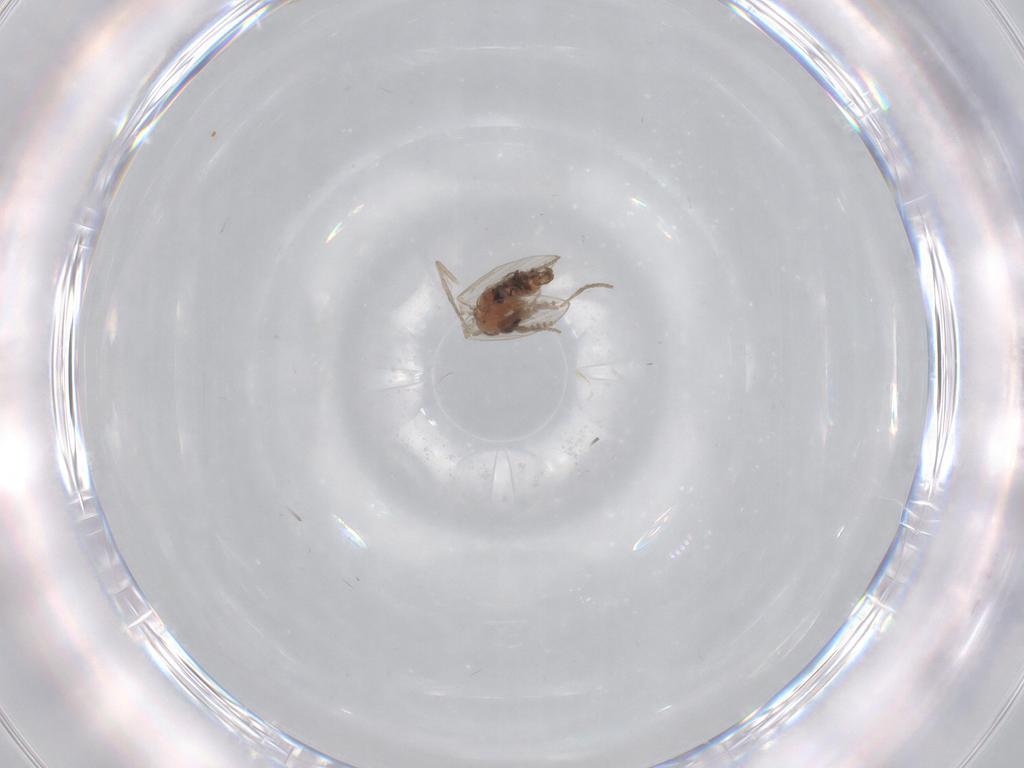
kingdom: Animalia
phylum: Arthropoda
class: Insecta
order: Diptera
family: Psychodidae
